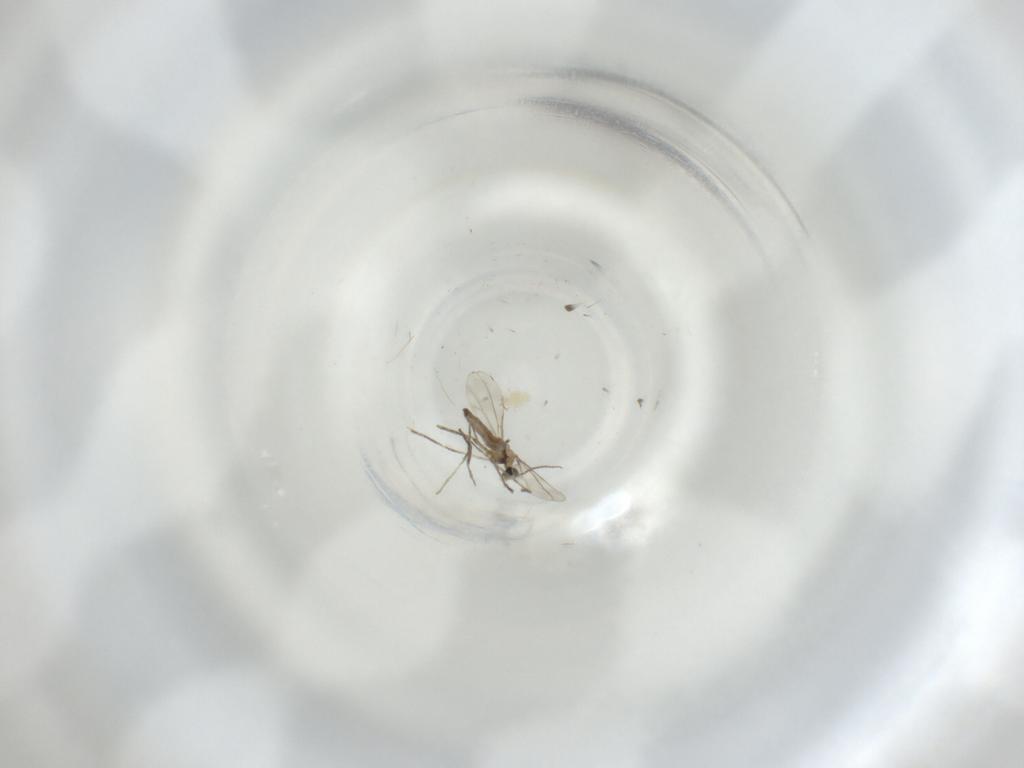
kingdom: Animalia
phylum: Arthropoda
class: Insecta
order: Diptera
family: Cecidomyiidae
